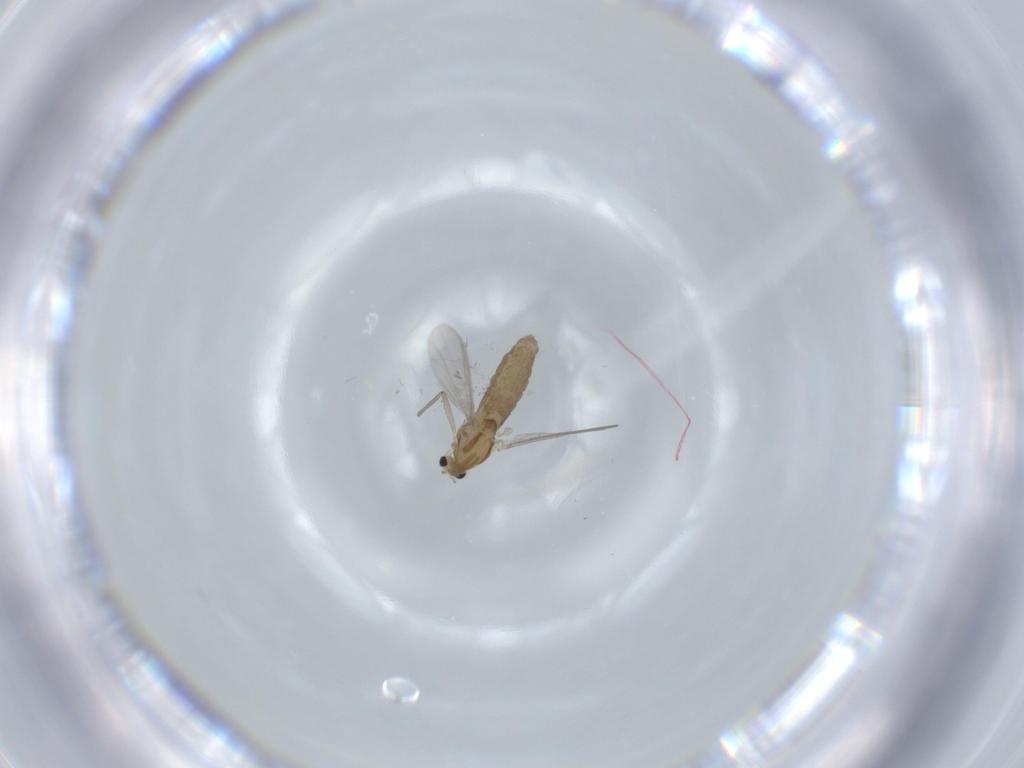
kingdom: Animalia
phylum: Arthropoda
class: Insecta
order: Diptera
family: Chironomidae
